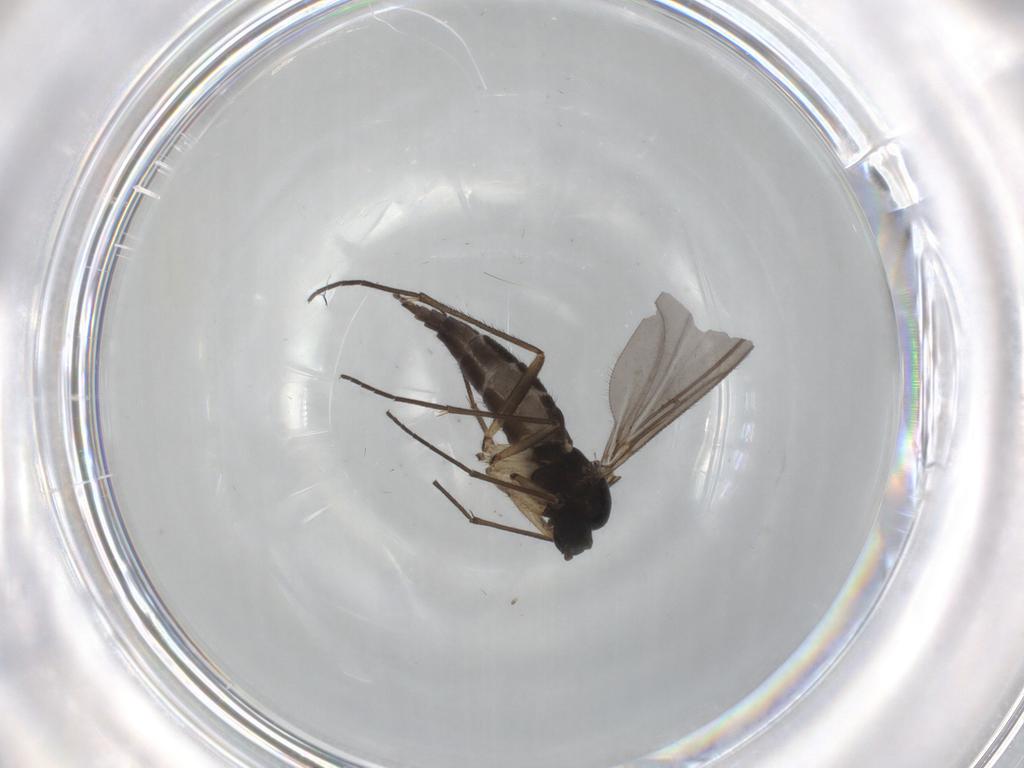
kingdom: Animalia
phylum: Arthropoda
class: Insecta
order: Diptera
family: Sciaridae
